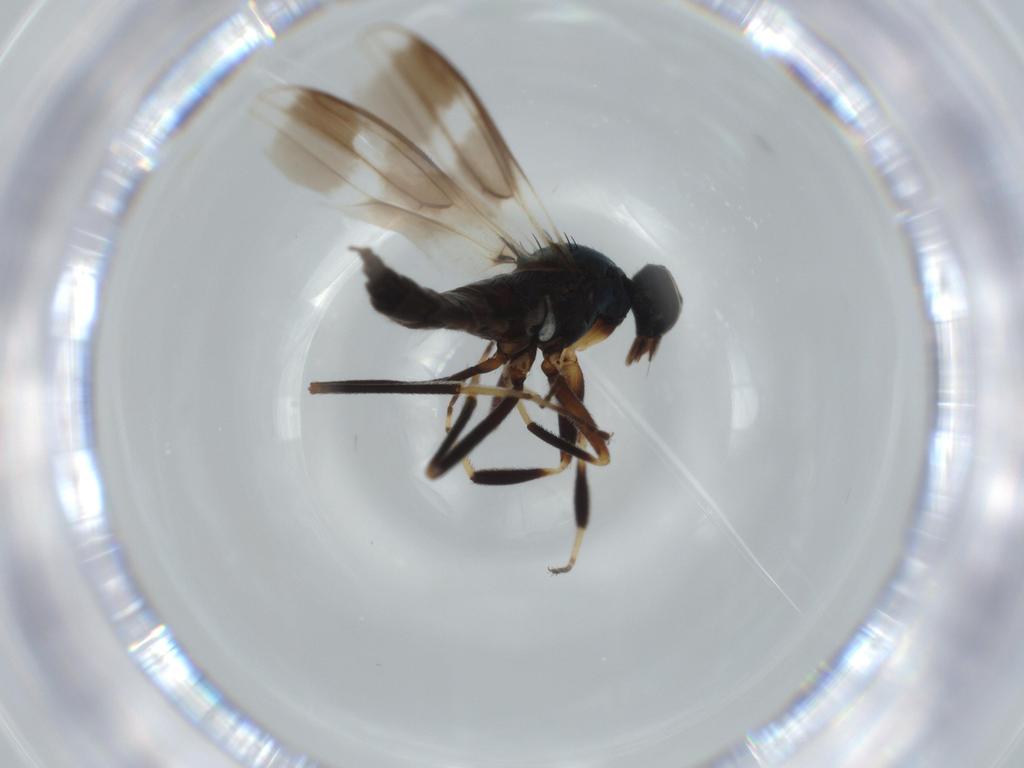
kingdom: Animalia
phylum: Arthropoda
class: Insecta
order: Diptera
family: Hybotidae
